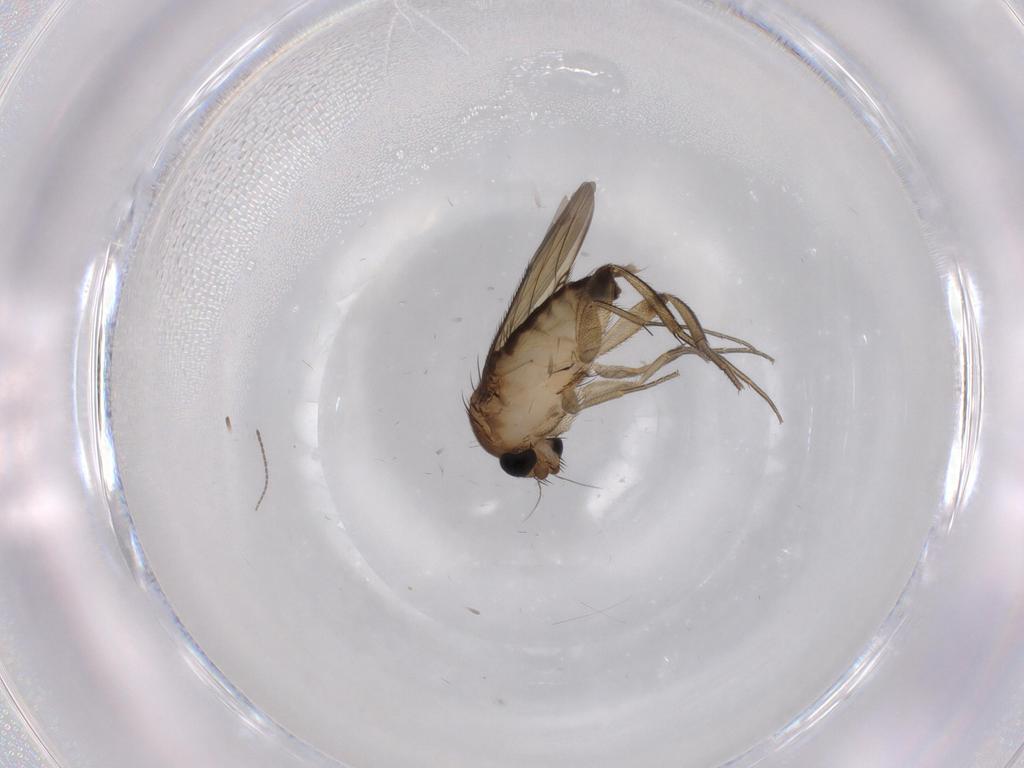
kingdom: Animalia
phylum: Arthropoda
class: Insecta
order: Diptera
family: Phoridae
